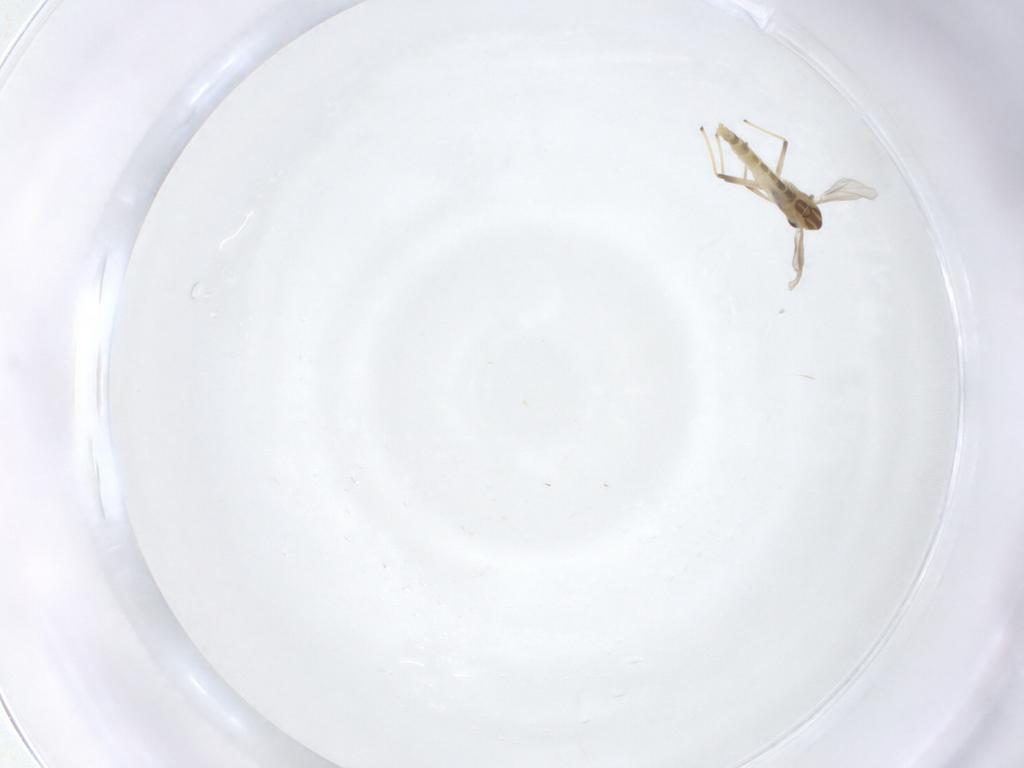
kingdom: Animalia
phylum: Arthropoda
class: Insecta
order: Diptera
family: Chironomidae
